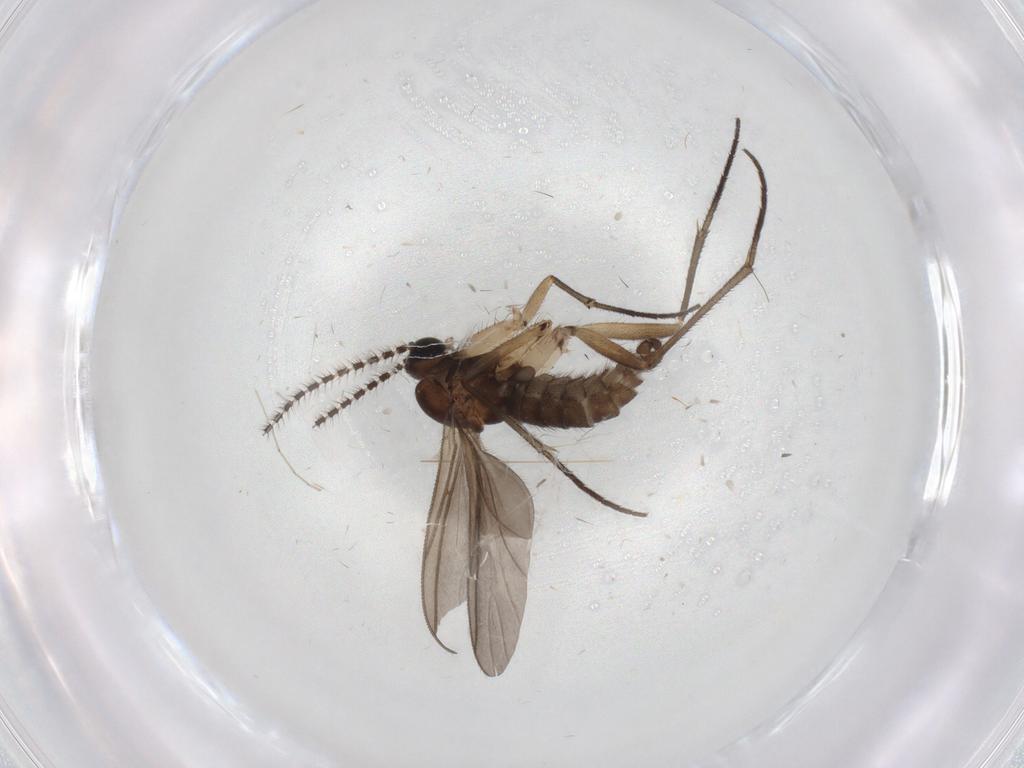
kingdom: Animalia
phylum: Arthropoda
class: Insecta
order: Diptera
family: Sciaridae
